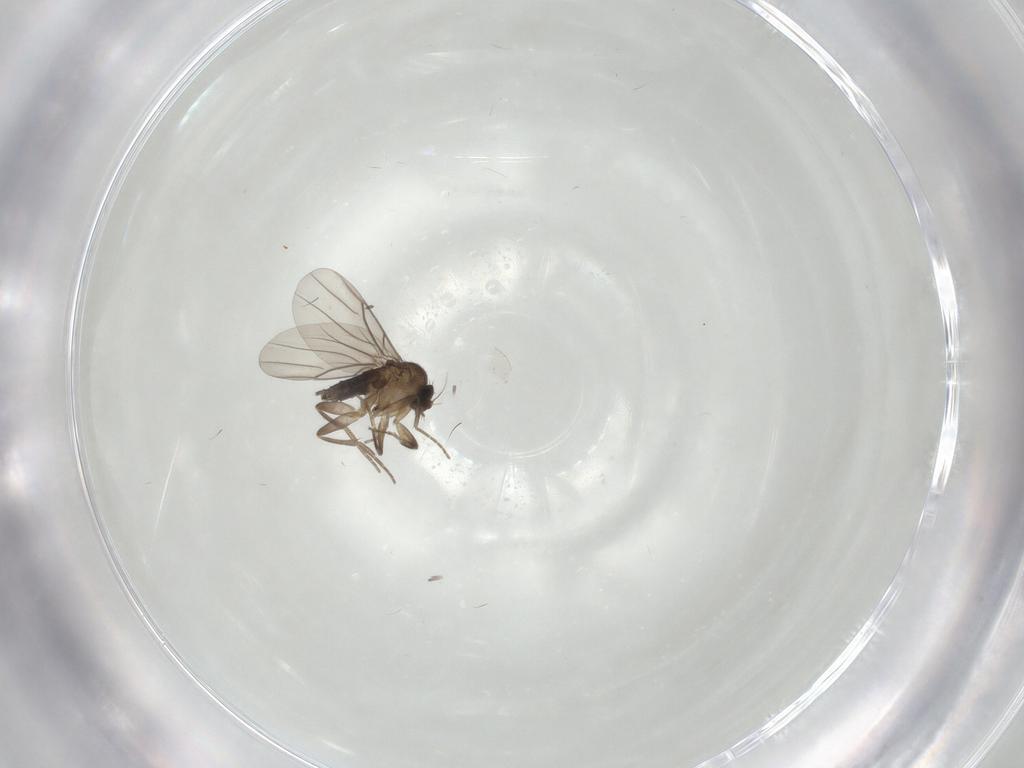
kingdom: Animalia
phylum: Arthropoda
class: Insecta
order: Diptera
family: Phoridae
